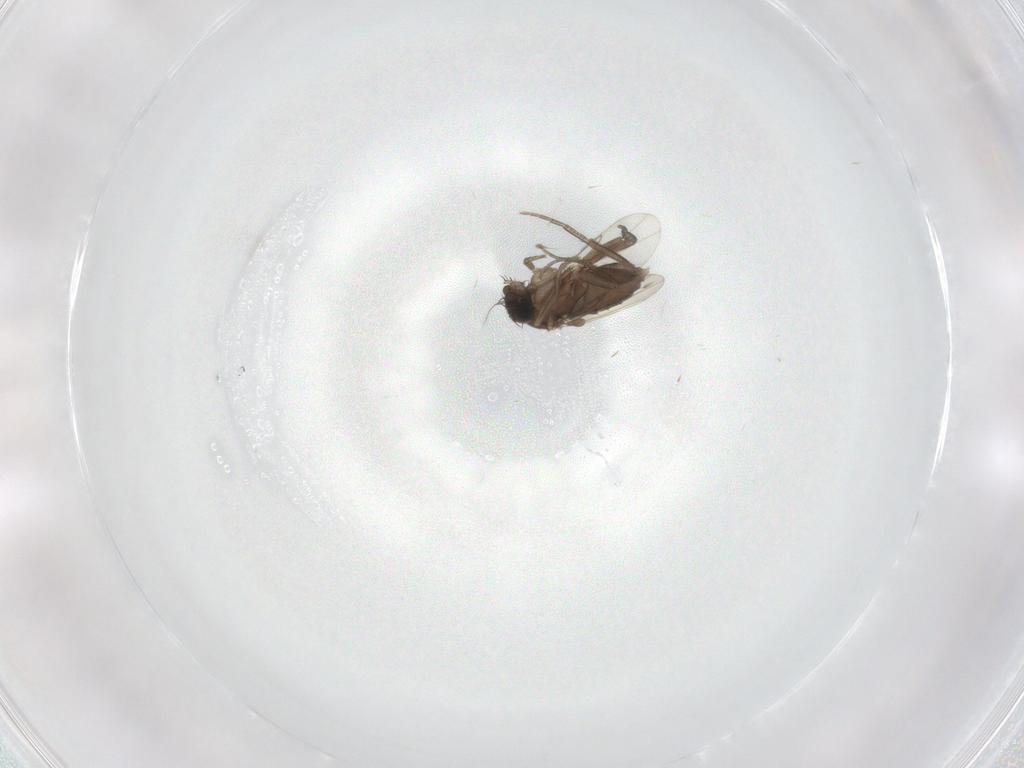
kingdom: Animalia
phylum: Arthropoda
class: Insecta
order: Diptera
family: Phoridae
